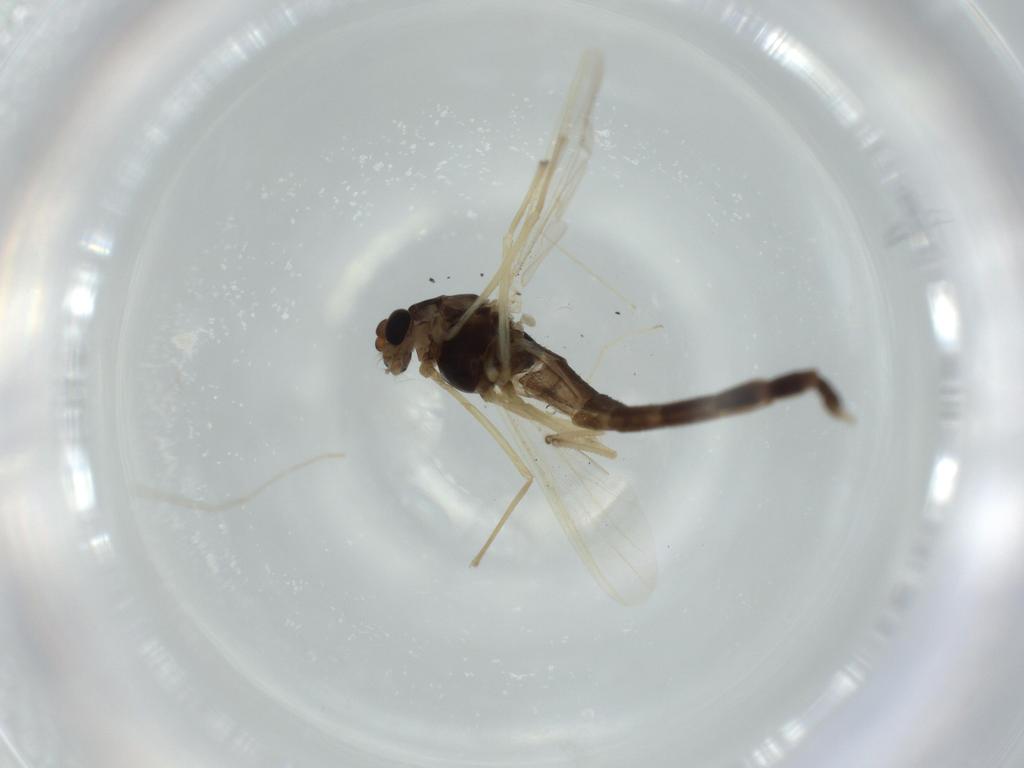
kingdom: Animalia
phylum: Arthropoda
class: Insecta
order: Diptera
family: Chironomidae
